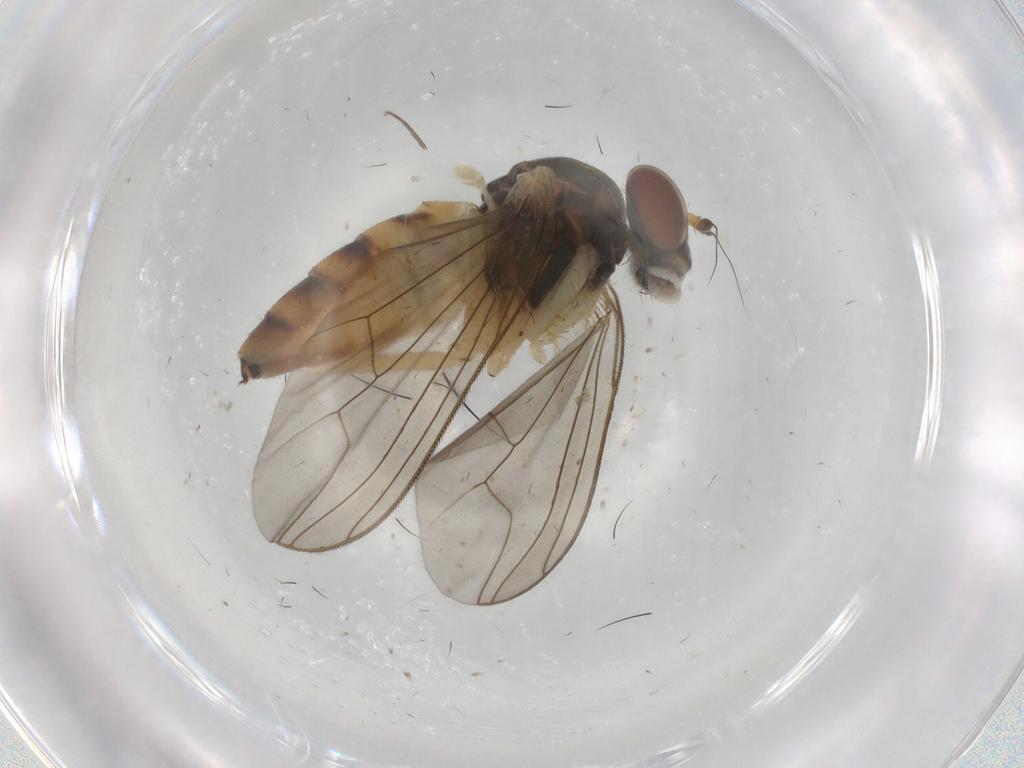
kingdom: Animalia
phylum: Arthropoda
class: Insecta
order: Diptera
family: Dolichopodidae
